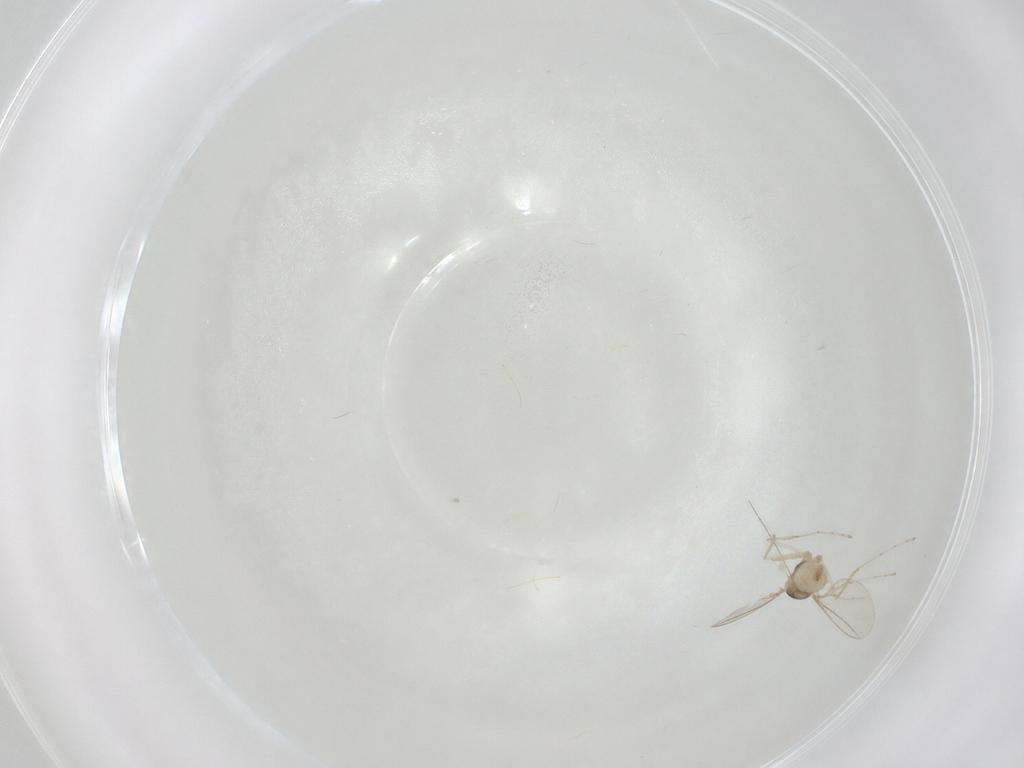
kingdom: Animalia
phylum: Arthropoda
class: Insecta
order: Diptera
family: Cecidomyiidae
